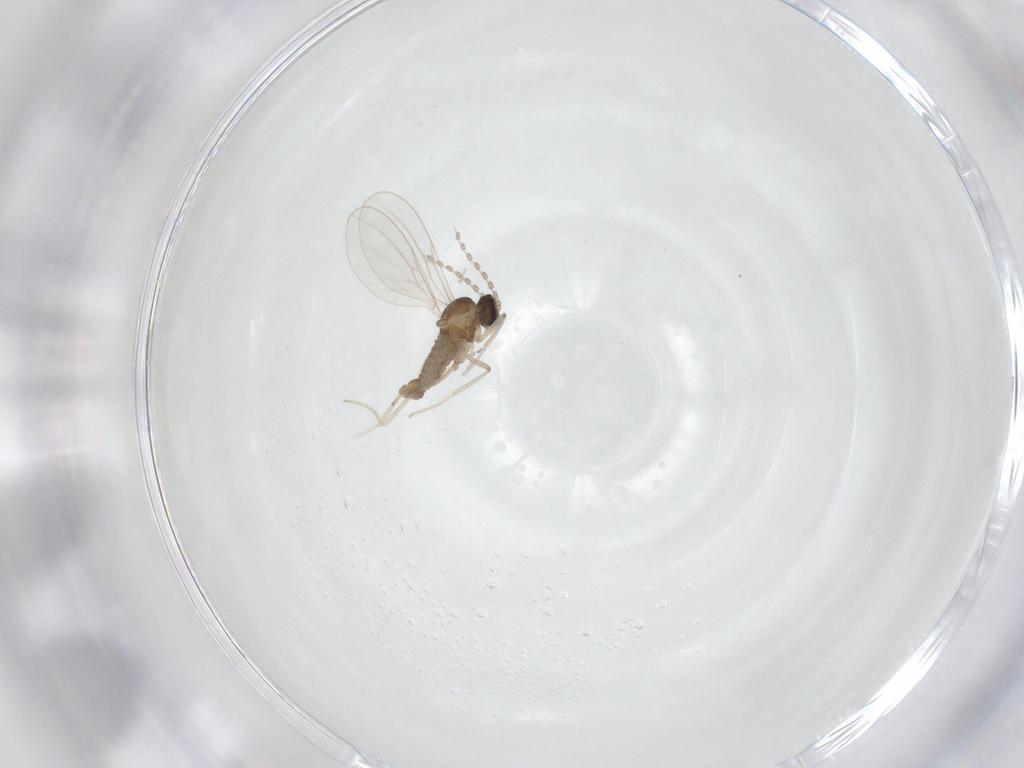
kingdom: Animalia
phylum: Arthropoda
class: Insecta
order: Diptera
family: Cecidomyiidae
